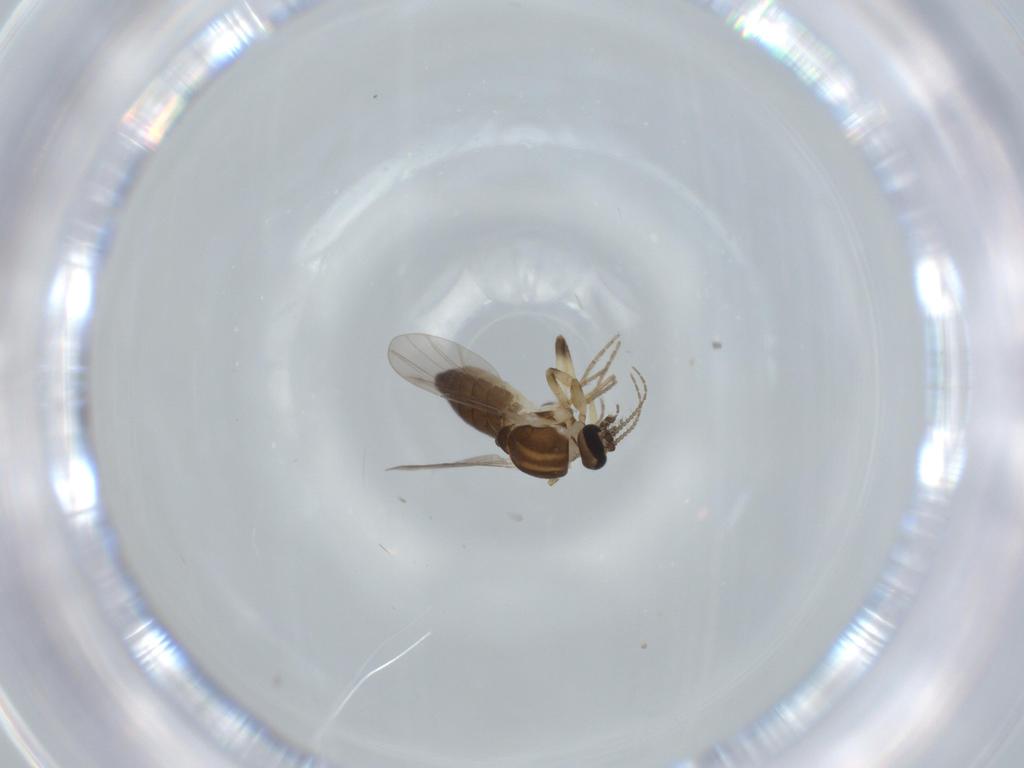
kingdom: Animalia
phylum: Arthropoda
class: Insecta
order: Diptera
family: Ceratopogonidae
